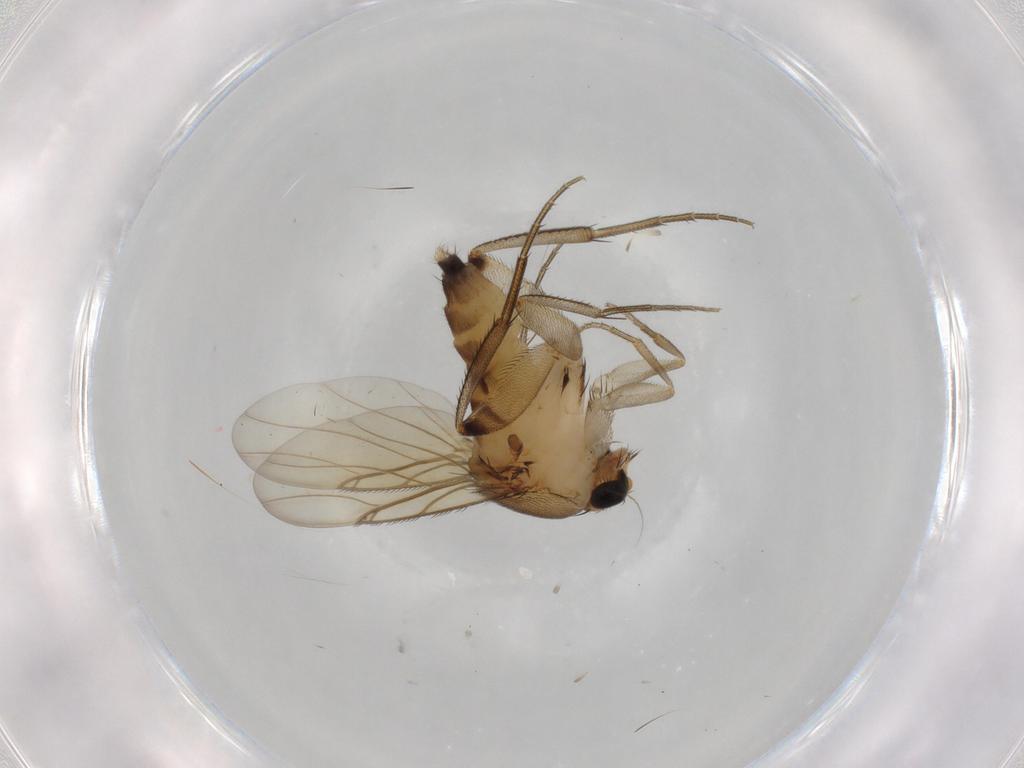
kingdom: Animalia
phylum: Arthropoda
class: Insecta
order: Diptera
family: Phoridae
